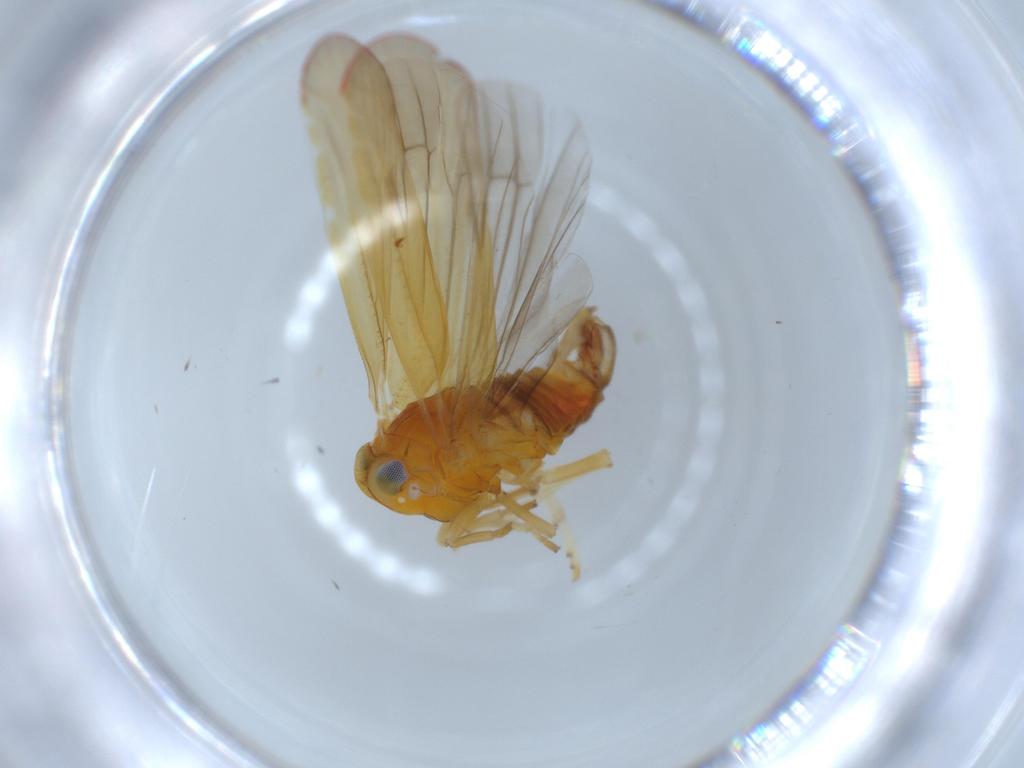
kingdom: Animalia
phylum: Arthropoda
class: Insecta
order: Hemiptera
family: Derbidae
